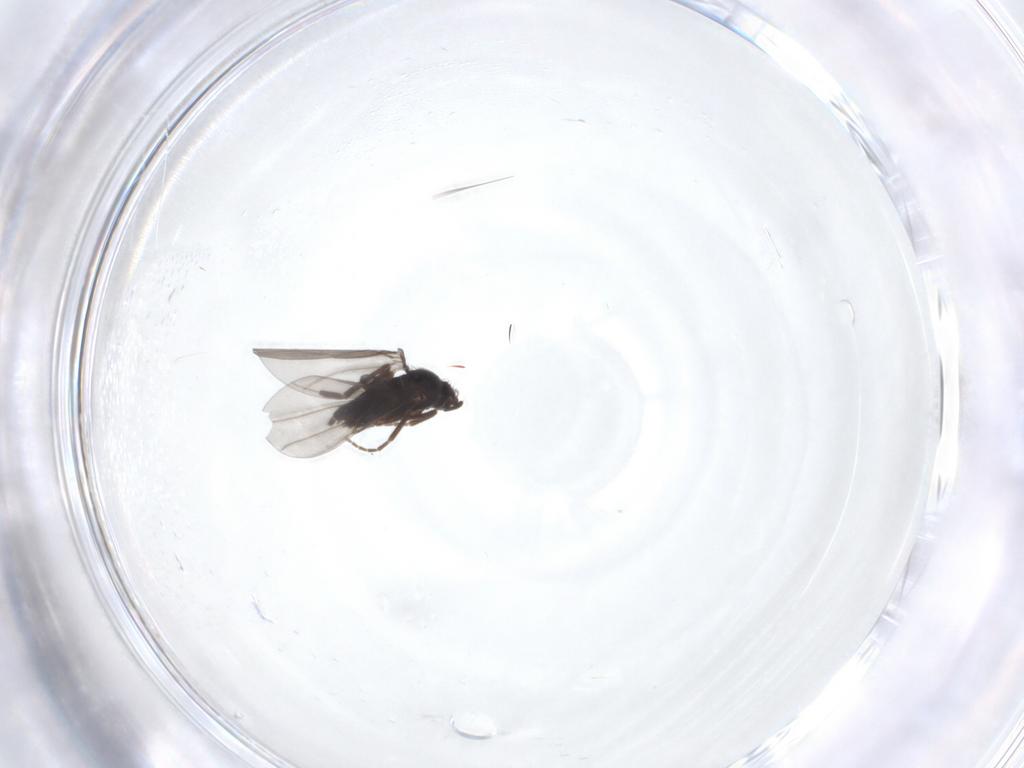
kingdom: Animalia
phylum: Arthropoda
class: Insecta
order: Diptera
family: Phoridae
